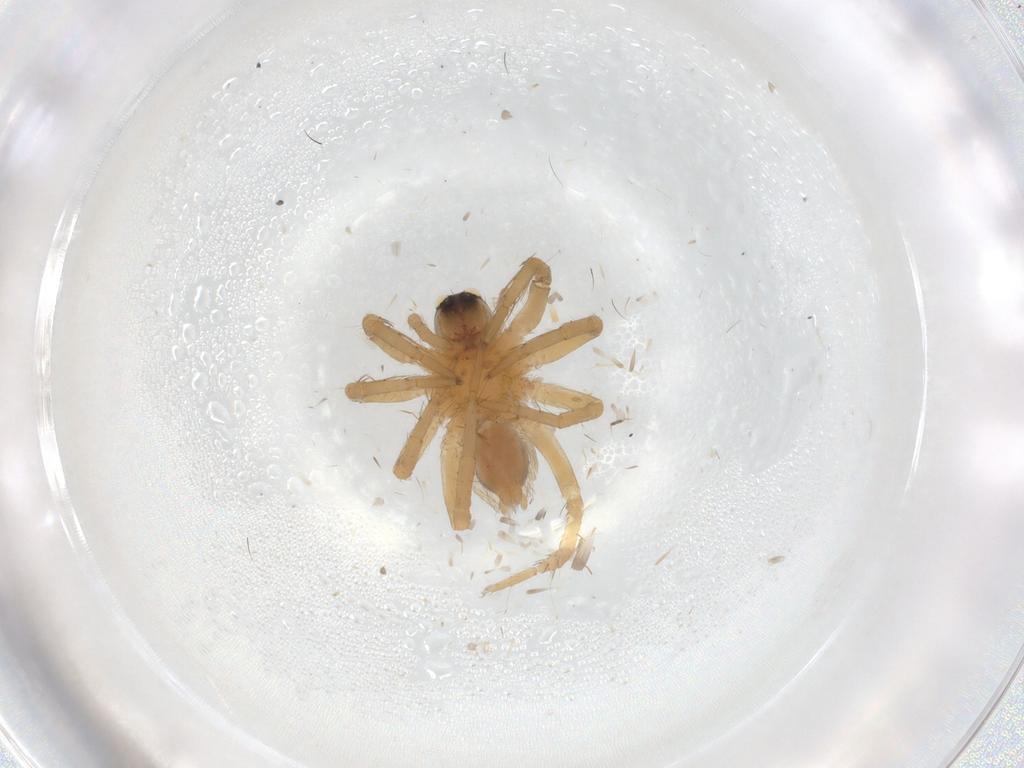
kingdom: Animalia
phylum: Arthropoda
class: Arachnida
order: Araneae
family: Lycosidae
